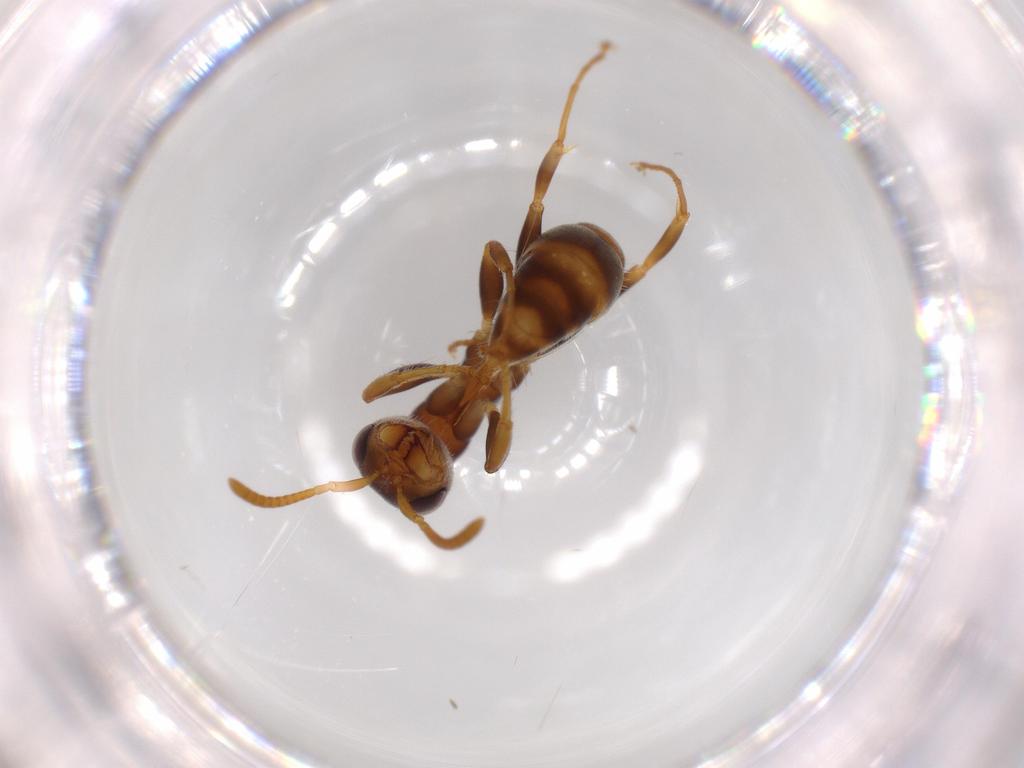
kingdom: Animalia
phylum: Arthropoda
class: Insecta
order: Hymenoptera
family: Formicidae
